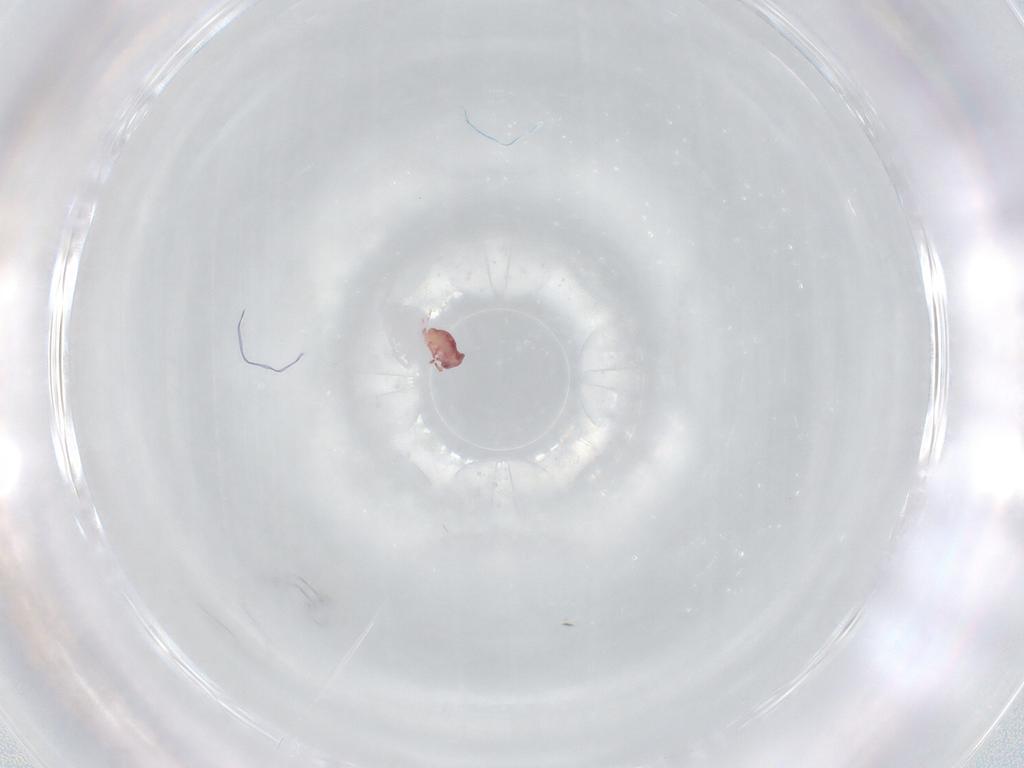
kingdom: Animalia
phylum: Arthropoda
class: Collembola
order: Symphypleona
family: Sminthurididae
